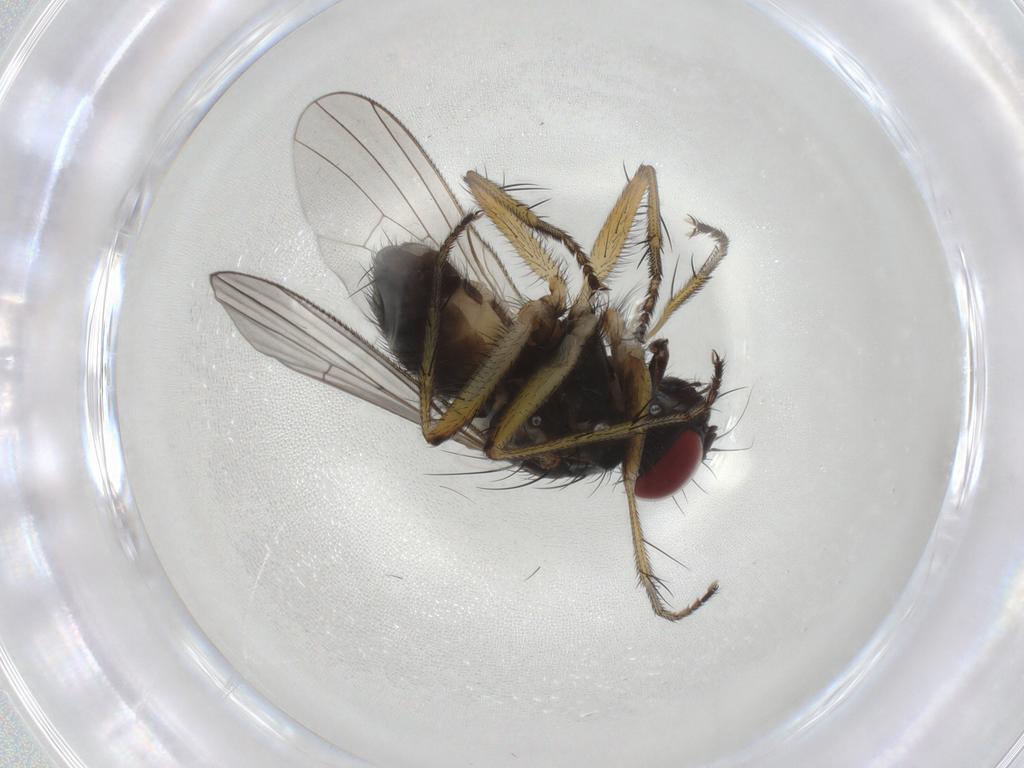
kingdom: Animalia
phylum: Arthropoda
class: Insecta
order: Diptera
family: Muscidae
